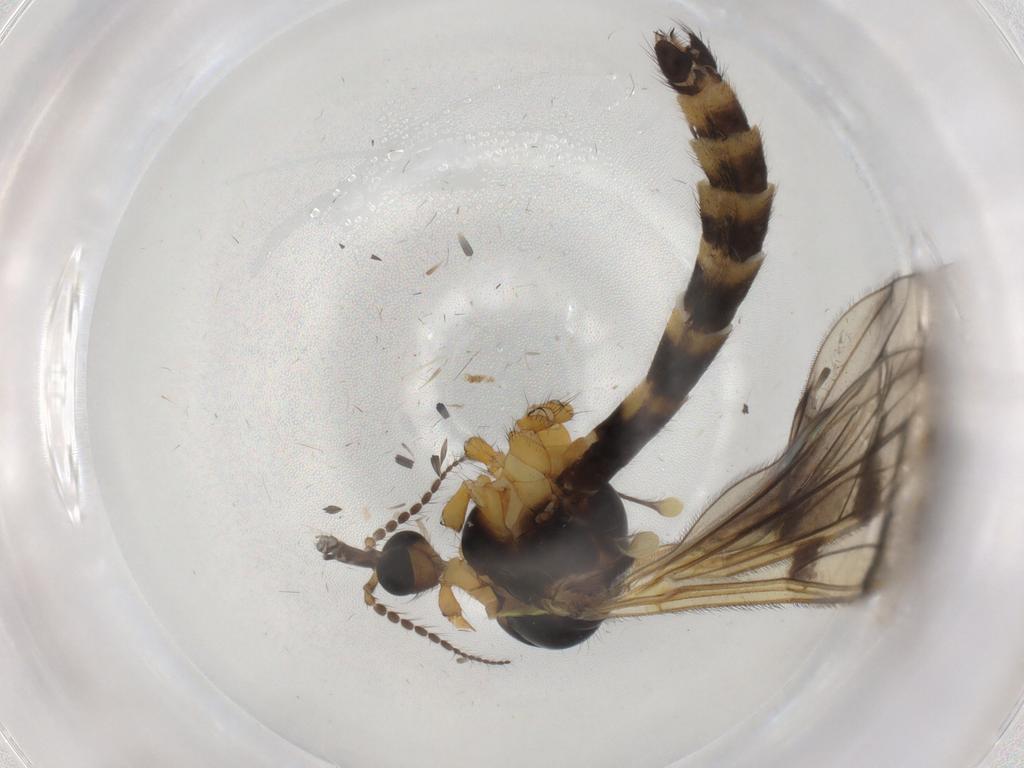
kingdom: Animalia
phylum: Arthropoda
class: Insecta
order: Diptera
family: Limoniidae
